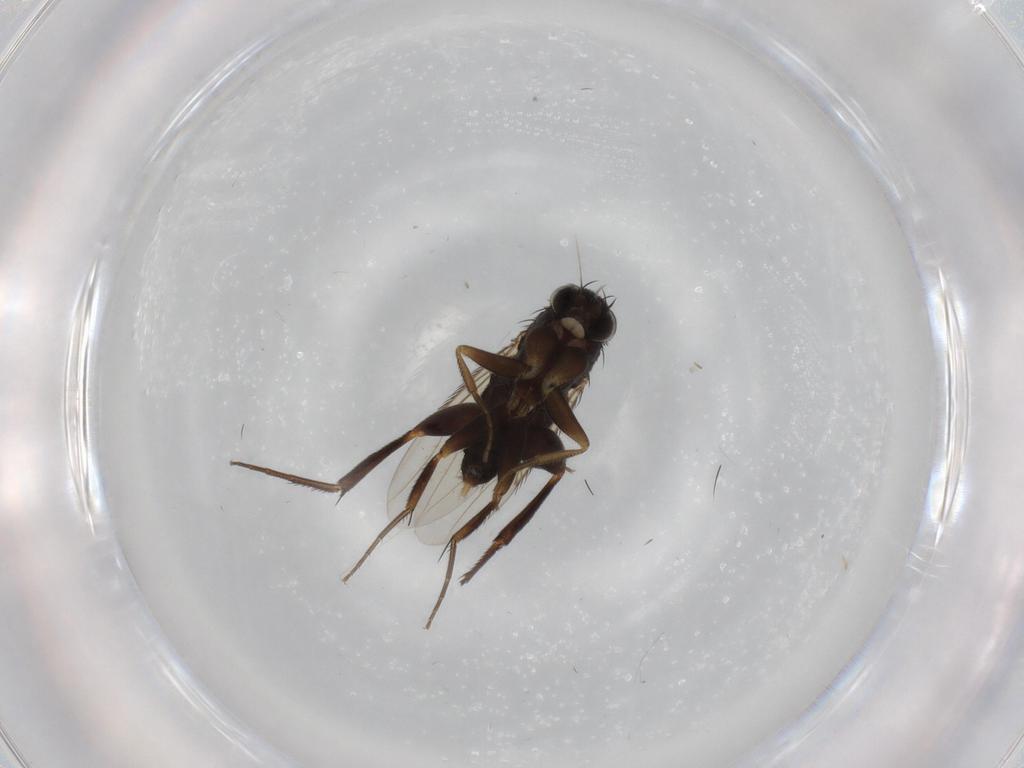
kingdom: Animalia
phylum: Arthropoda
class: Insecta
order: Diptera
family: Phoridae
